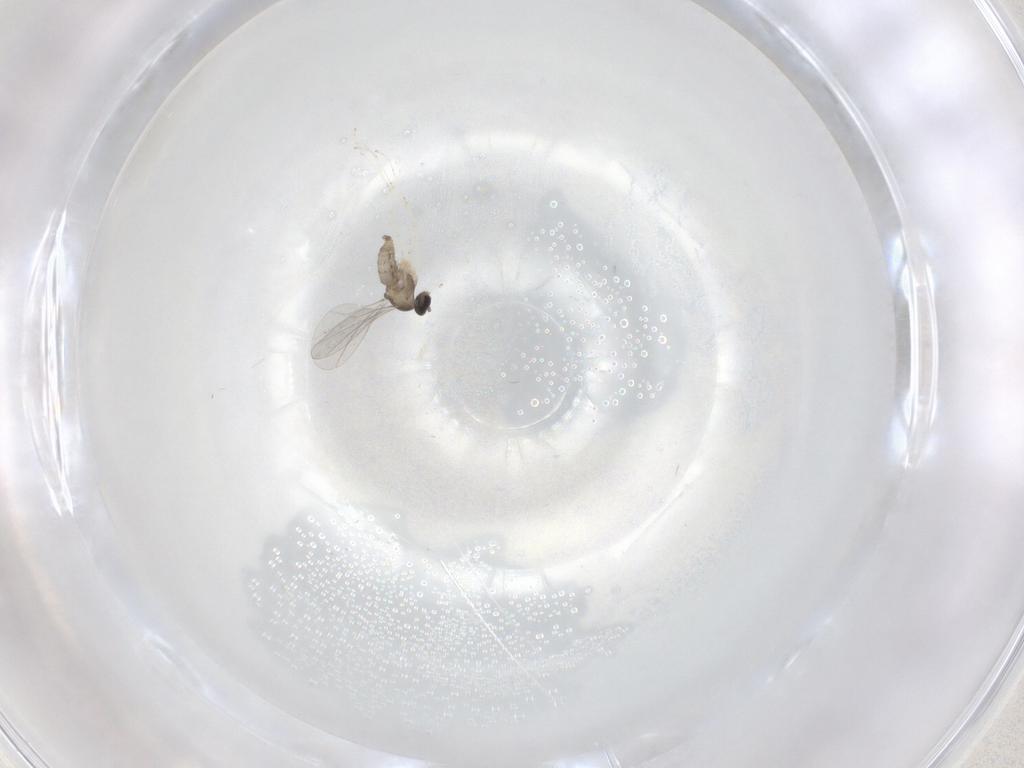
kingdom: Animalia
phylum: Arthropoda
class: Insecta
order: Diptera
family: Cecidomyiidae
